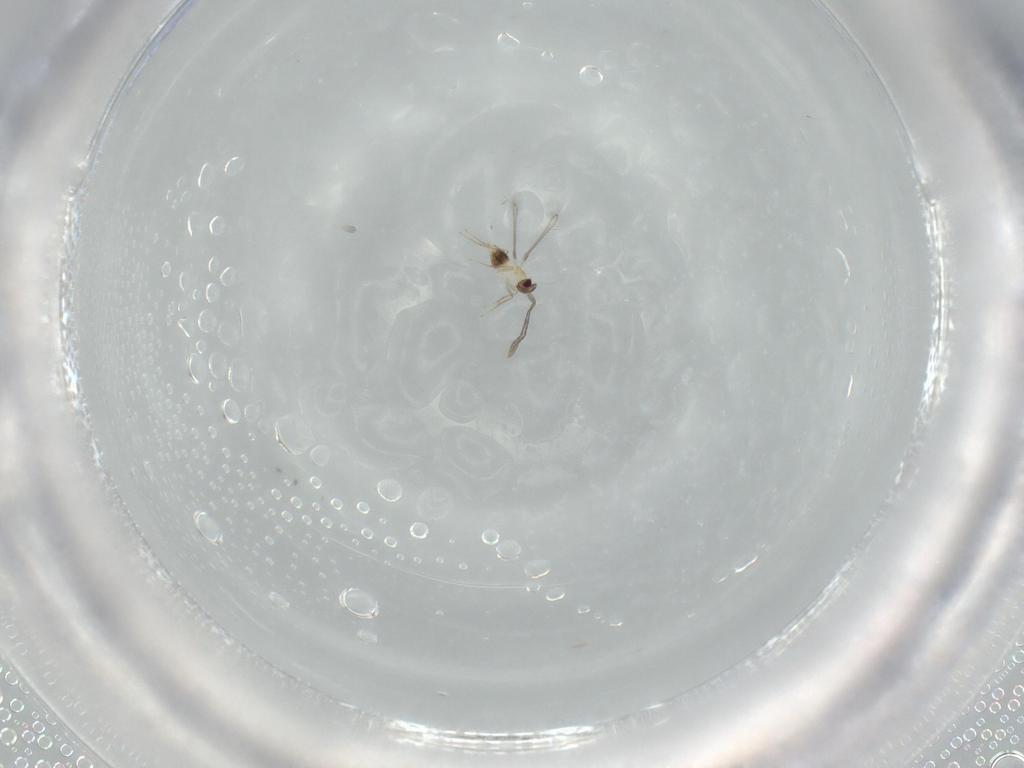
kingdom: Animalia
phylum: Arthropoda
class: Insecta
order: Hymenoptera
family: Mymaridae
